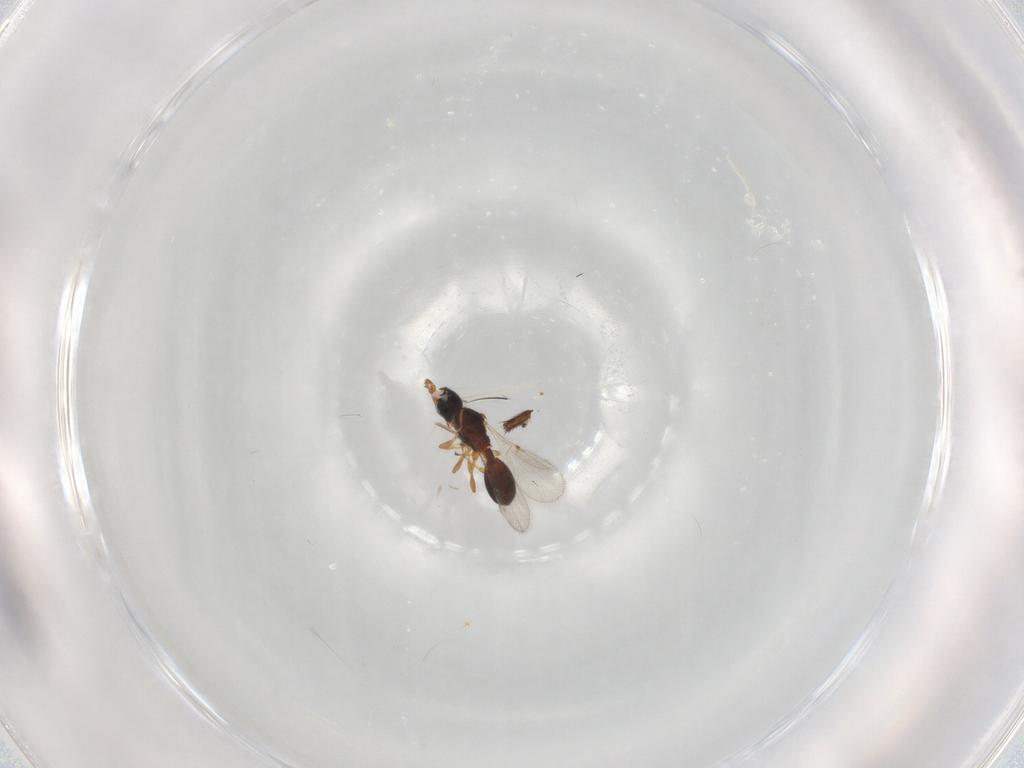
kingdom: Animalia
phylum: Arthropoda
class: Insecta
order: Hymenoptera
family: Diapriidae
